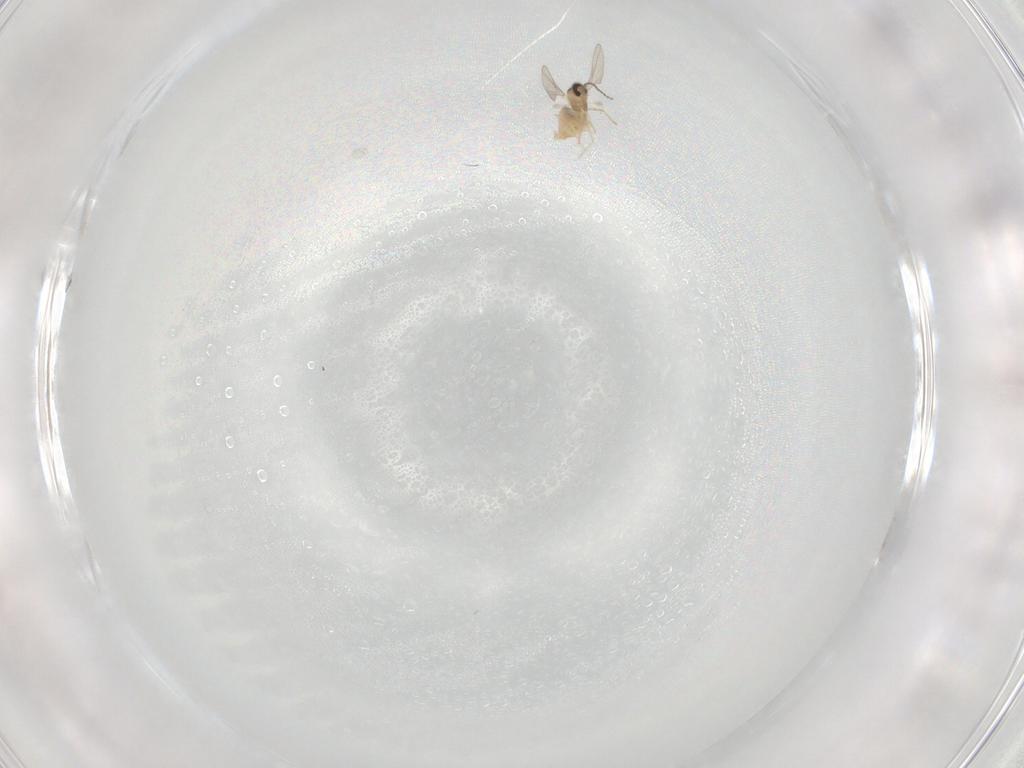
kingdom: Animalia
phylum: Arthropoda
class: Insecta
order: Diptera
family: Cecidomyiidae
